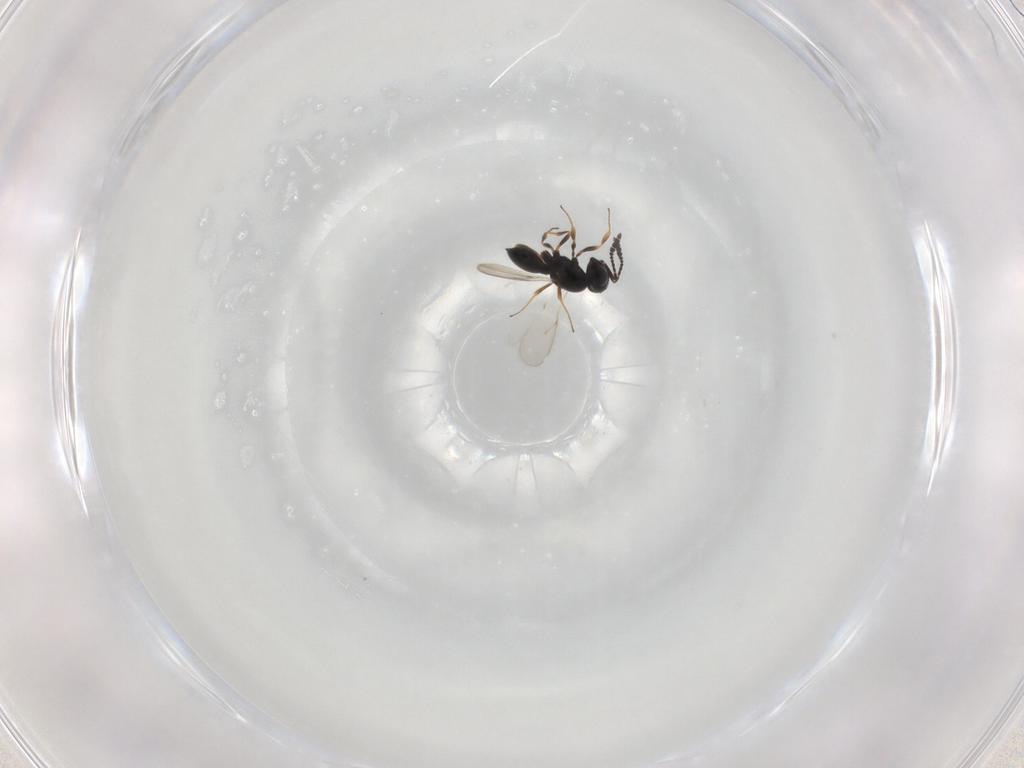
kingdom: Animalia
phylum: Arthropoda
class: Insecta
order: Hymenoptera
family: Scelionidae
